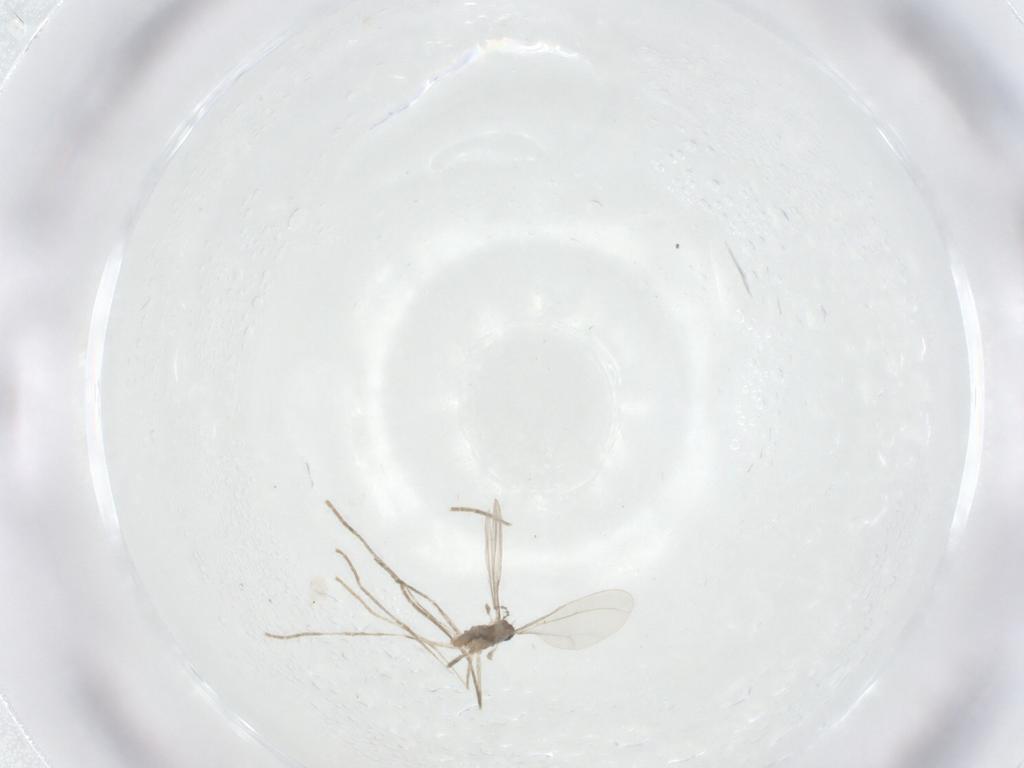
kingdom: Animalia
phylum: Arthropoda
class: Insecta
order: Diptera
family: Cecidomyiidae
